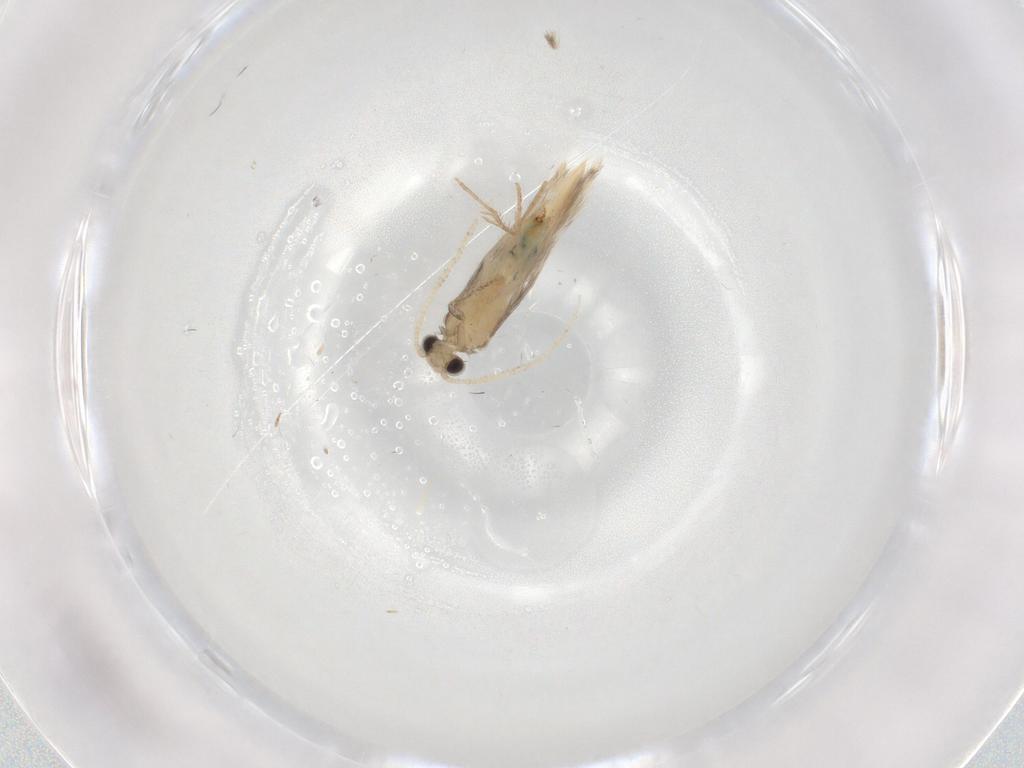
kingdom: Animalia
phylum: Arthropoda
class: Insecta
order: Trichoptera
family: Hydroptilidae
